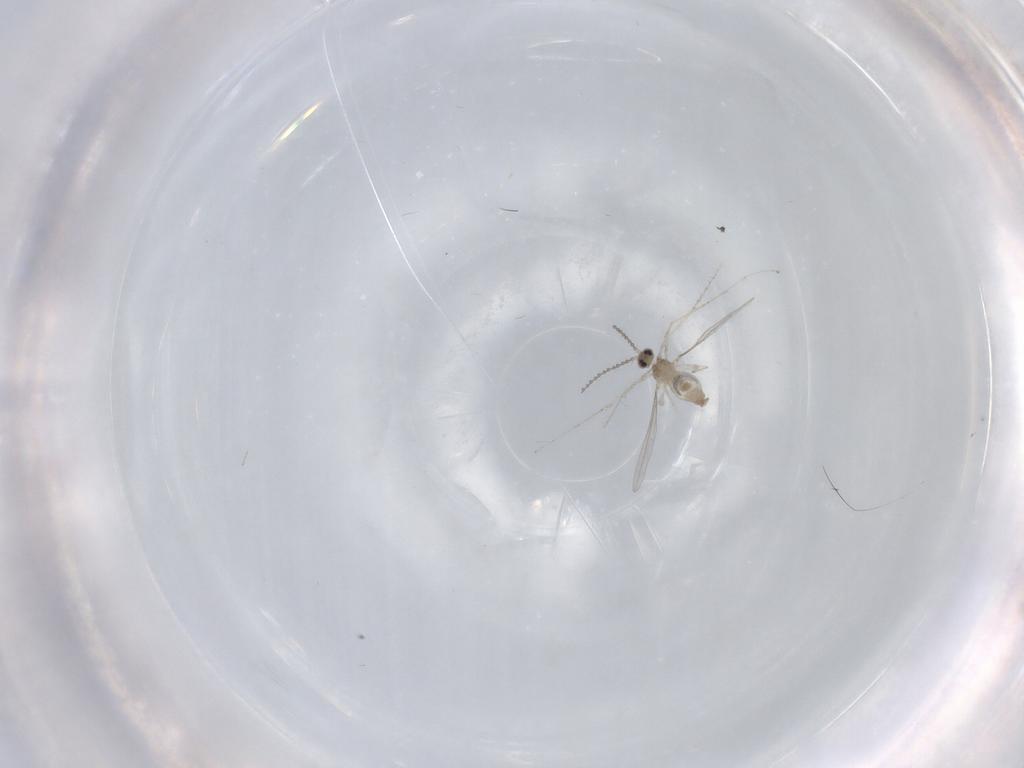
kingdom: Animalia
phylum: Arthropoda
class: Insecta
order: Diptera
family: Cecidomyiidae
